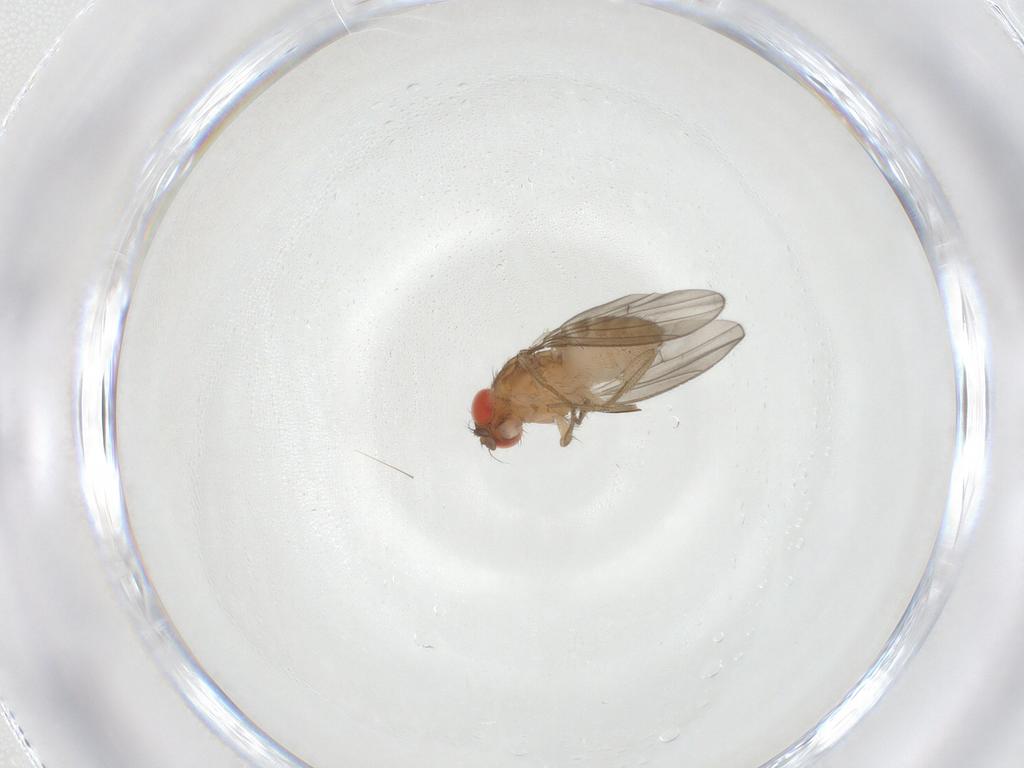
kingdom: Animalia
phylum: Arthropoda
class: Insecta
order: Diptera
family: Drosophilidae
